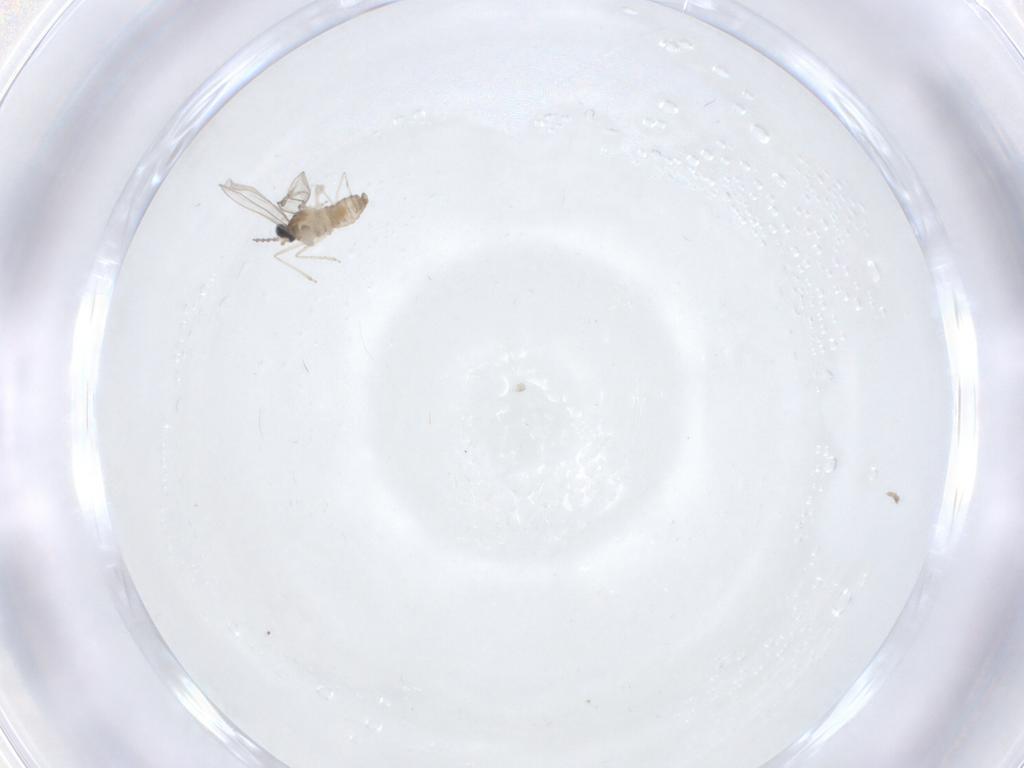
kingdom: Animalia
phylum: Arthropoda
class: Insecta
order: Diptera
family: Cecidomyiidae
